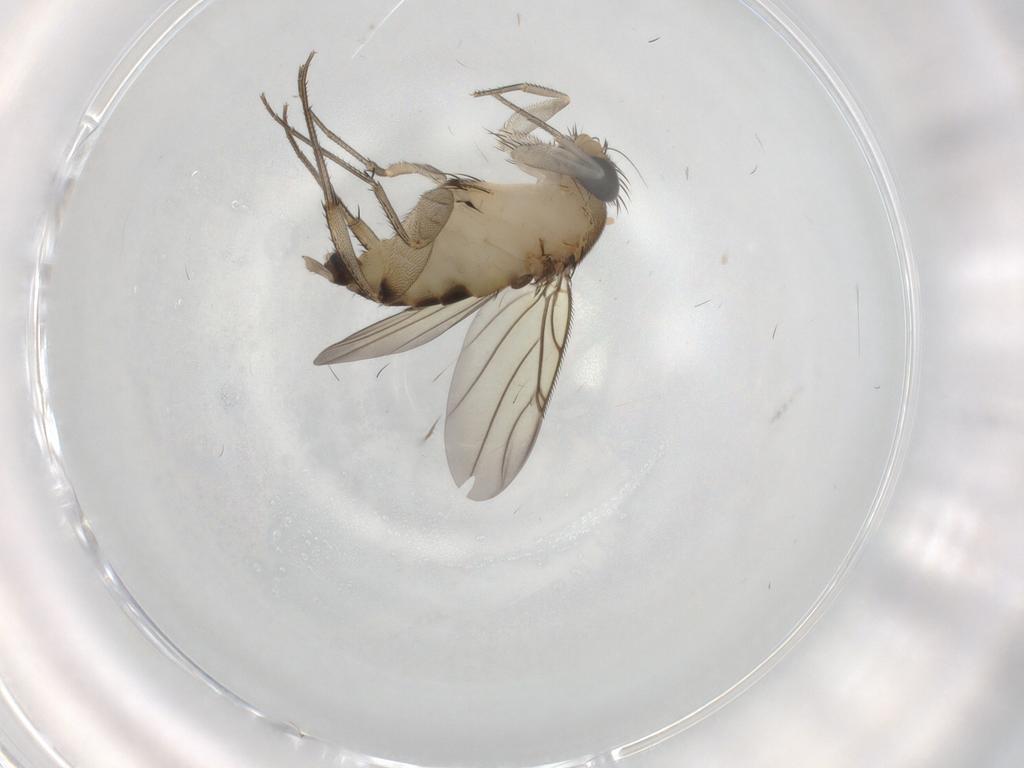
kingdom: Animalia
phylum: Arthropoda
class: Insecta
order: Diptera
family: Phoridae
